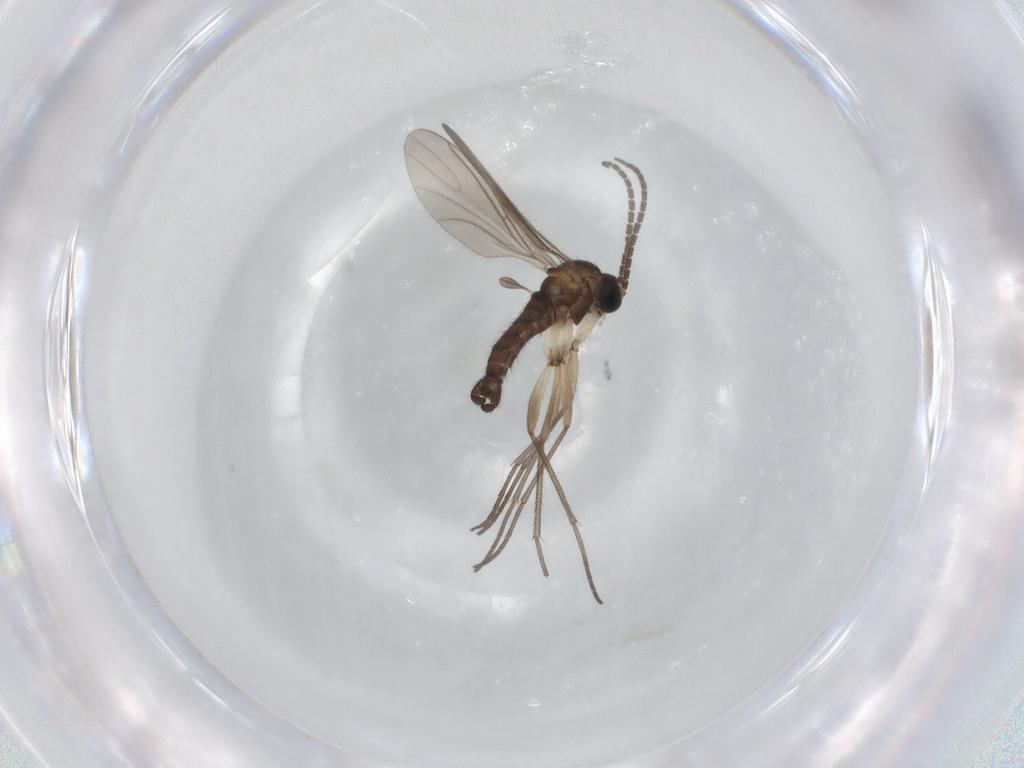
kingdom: Animalia
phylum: Arthropoda
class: Insecta
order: Diptera
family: Sciaridae
